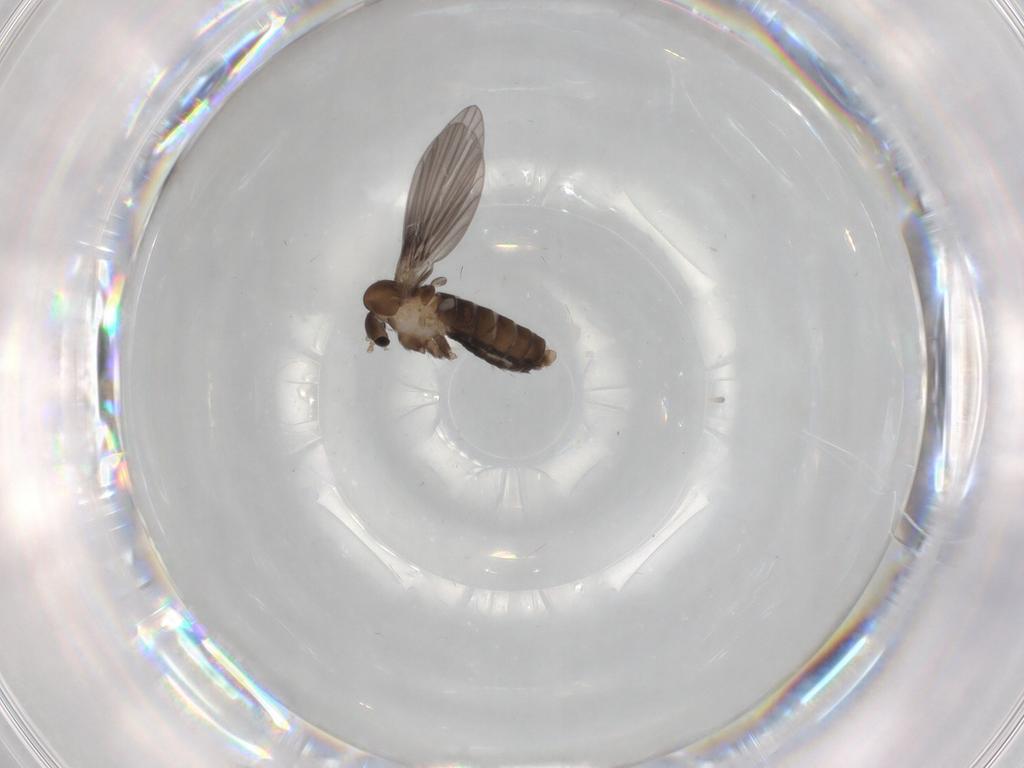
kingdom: Animalia
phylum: Arthropoda
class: Insecta
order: Diptera
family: Psychodidae
